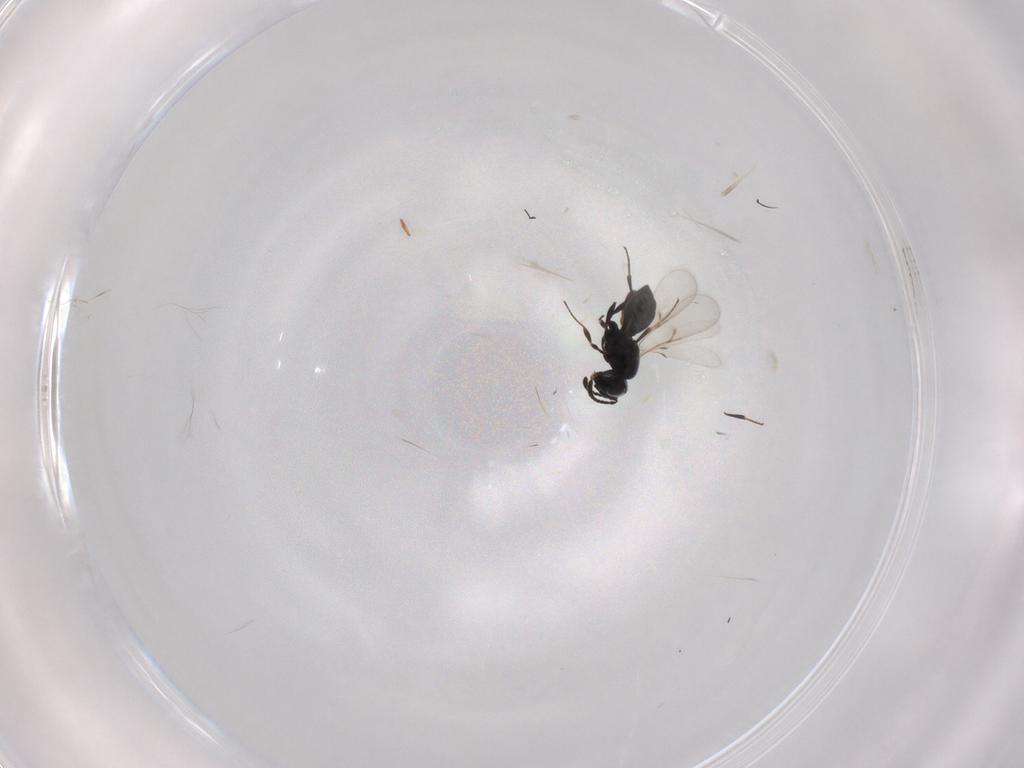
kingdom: Animalia
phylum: Arthropoda
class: Insecta
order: Hymenoptera
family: Scelionidae
